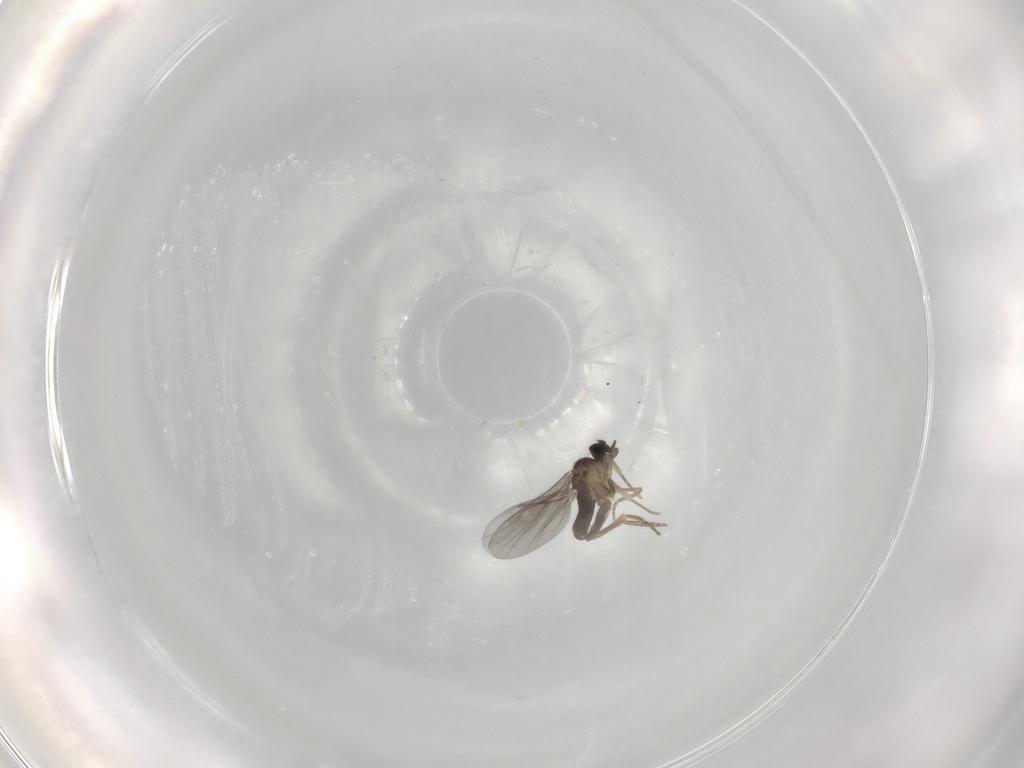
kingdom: Animalia
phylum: Arthropoda
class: Insecta
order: Diptera
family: Phoridae
